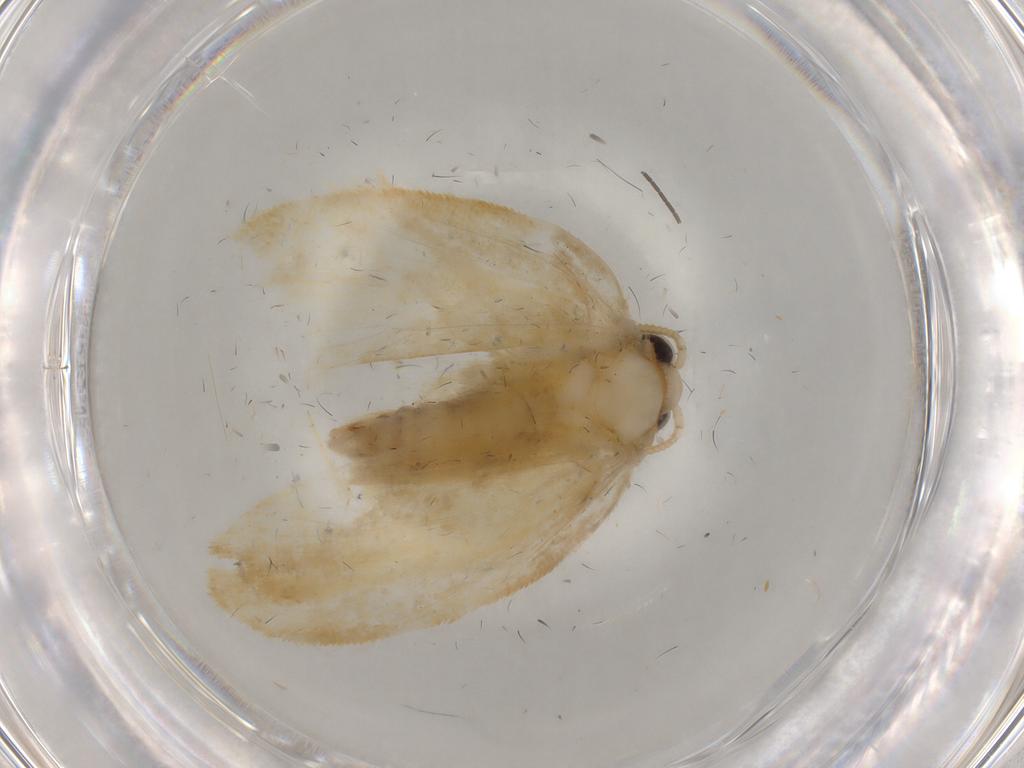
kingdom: Animalia
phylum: Arthropoda
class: Insecta
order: Lepidoptera
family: Psychidae
